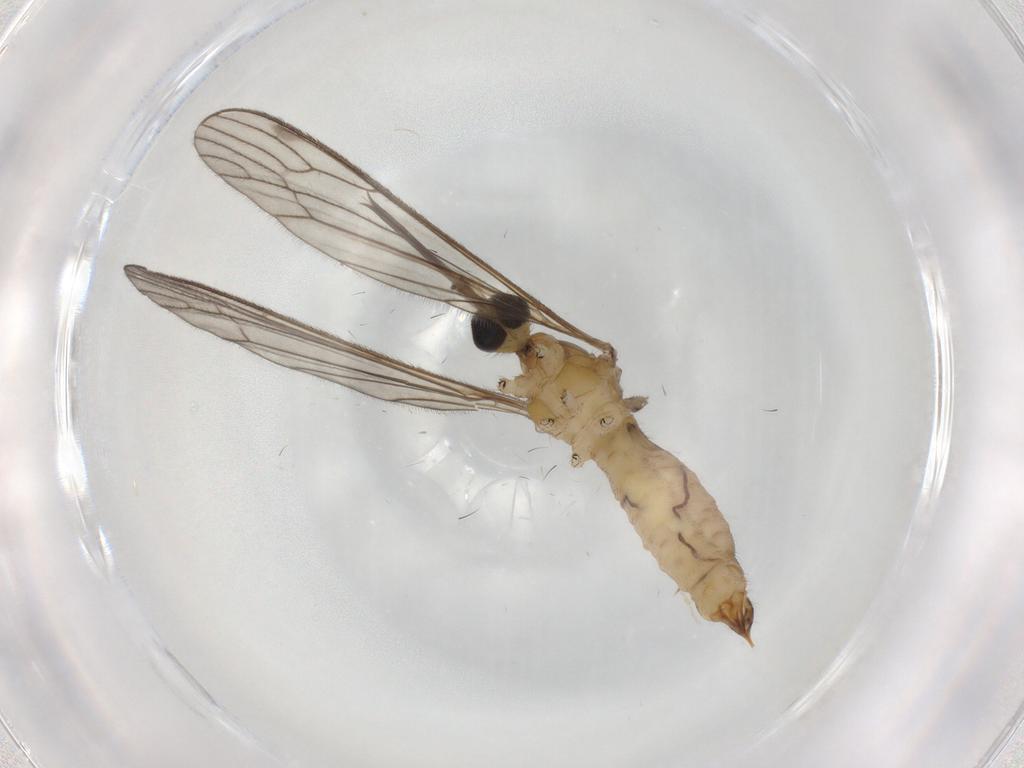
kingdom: Animalia
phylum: Arthropoda
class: Insecta
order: Diptera
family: Limoniidae
